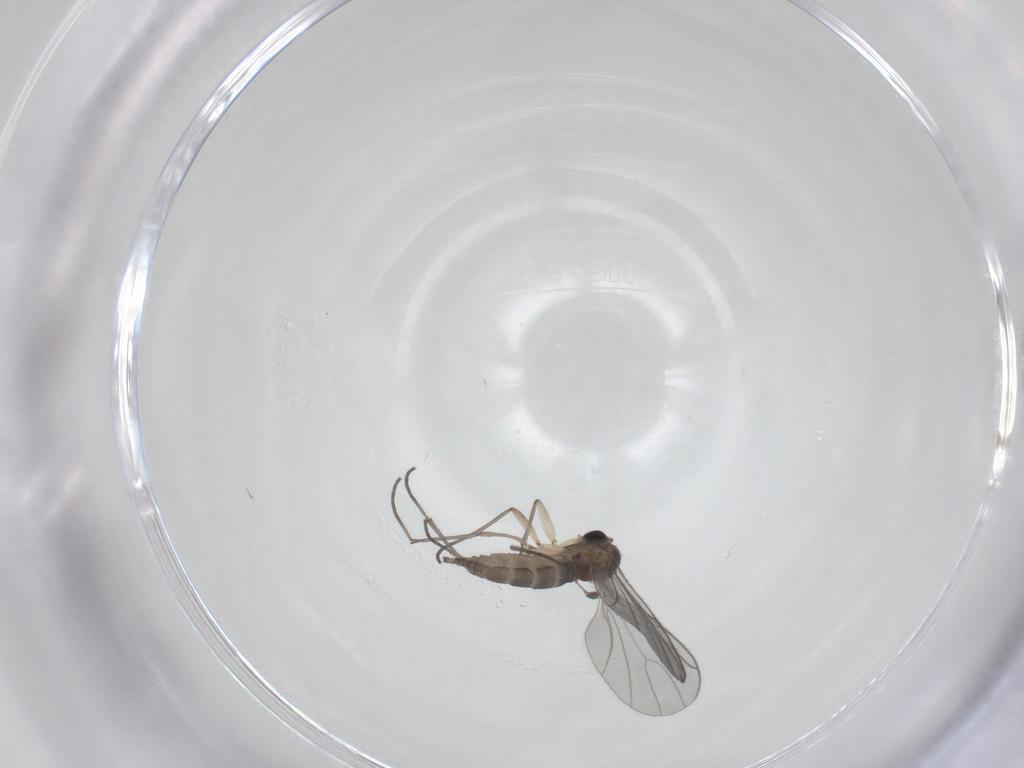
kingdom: Animalia
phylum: Arthropoda
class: Insecta
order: Diptera
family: Sciaridae
